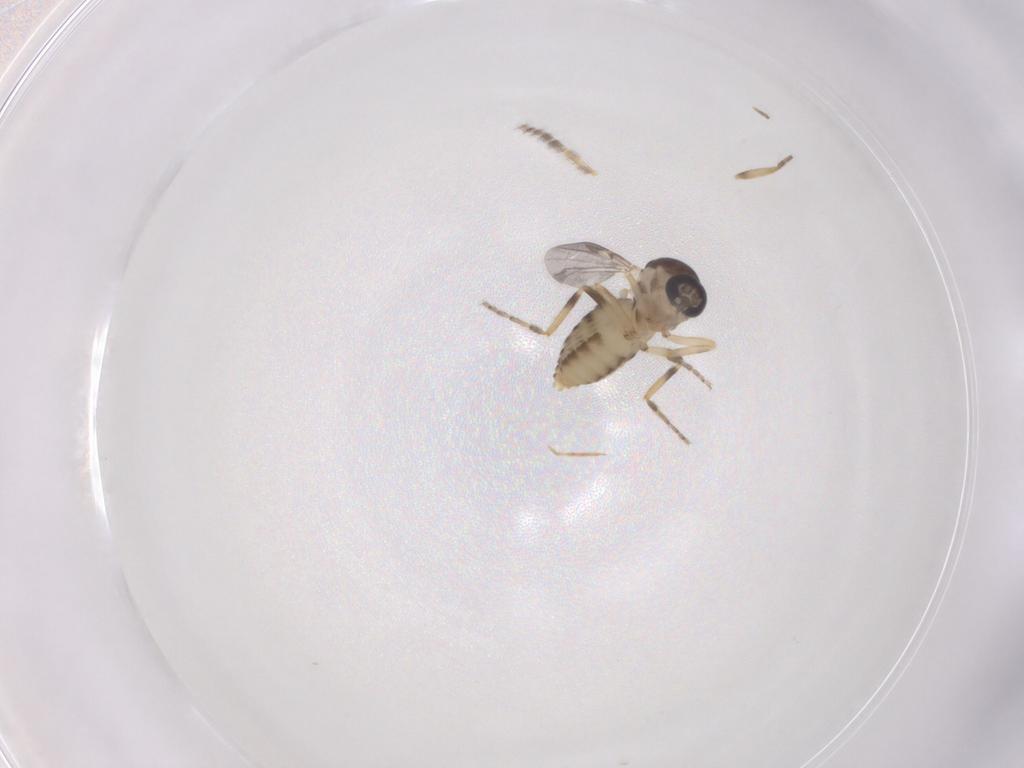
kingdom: Animalia
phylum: Arthropoda
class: Insecta
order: Diptera
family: Ceratopogonidae
